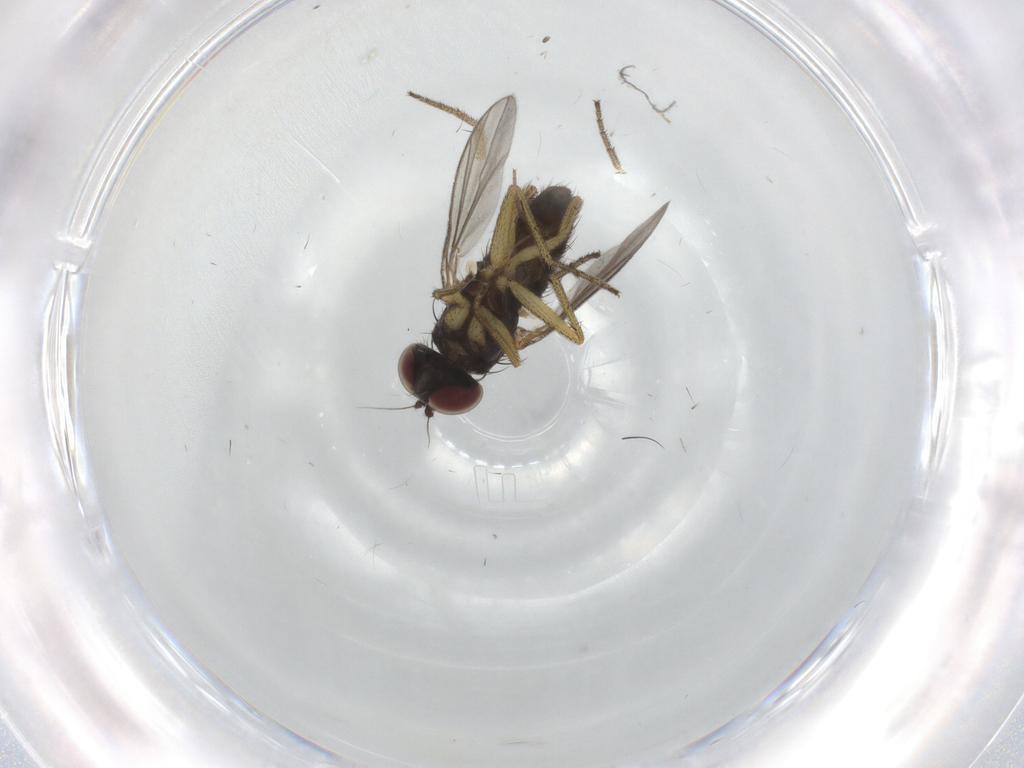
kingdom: Animalia
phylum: Arthropoda
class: Insecta
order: Diptera
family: Chironomidae
